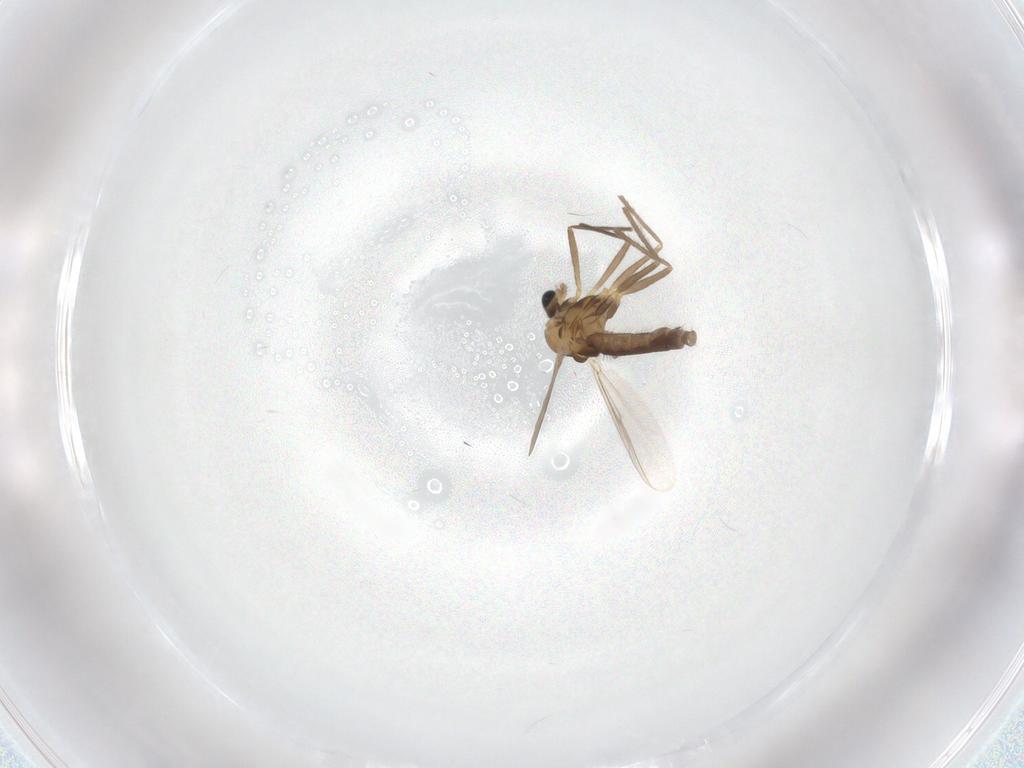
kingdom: Animalia
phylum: Arthropoda
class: Insecta
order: Diptera
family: Chironomidae
